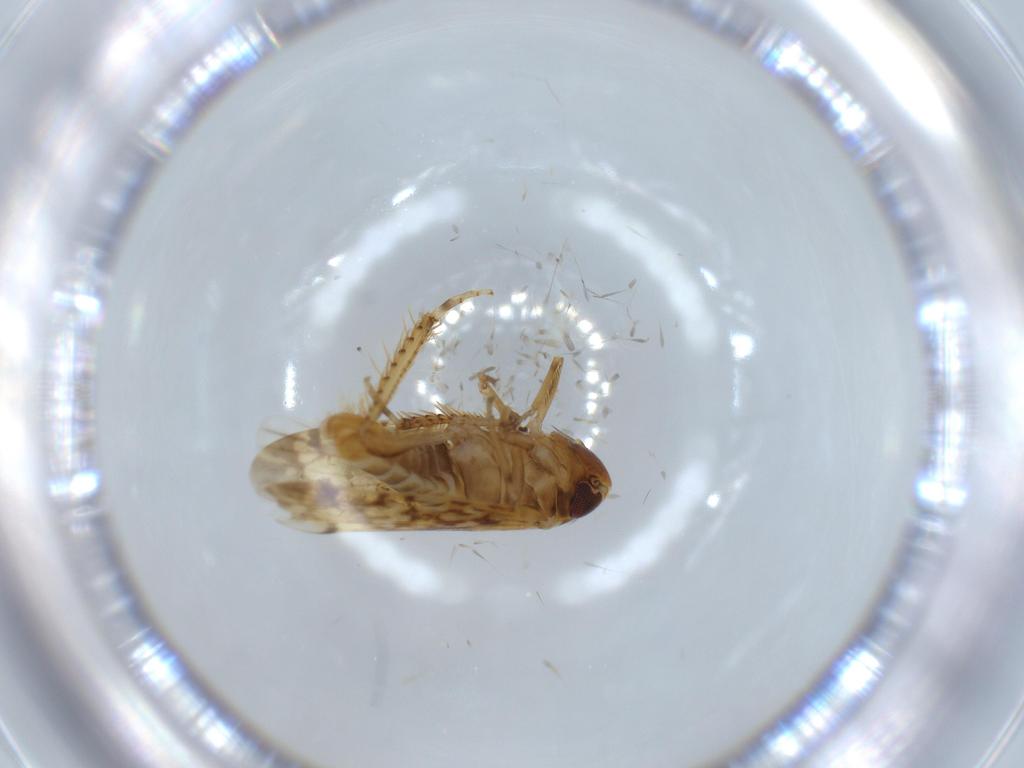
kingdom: Animalia
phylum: Arthropoda
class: Insecta
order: Hemiptera
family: Cicadellidae
